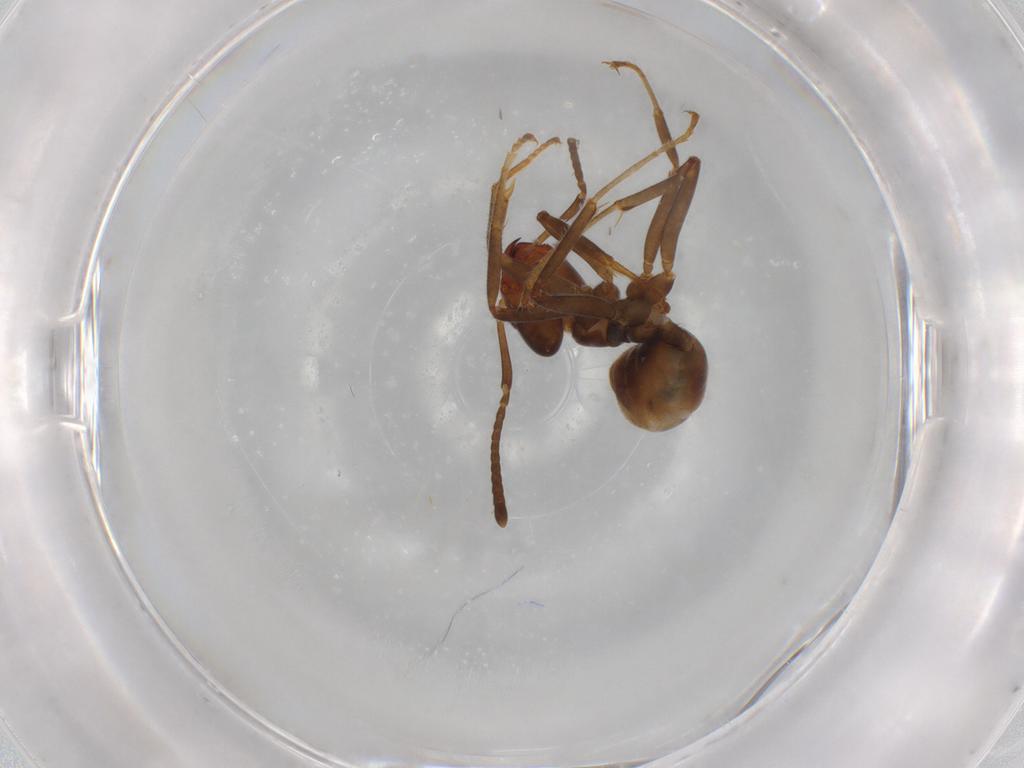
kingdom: Animalia
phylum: Arthropoda
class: Insecta
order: Hymenoptera
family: Formicidae
